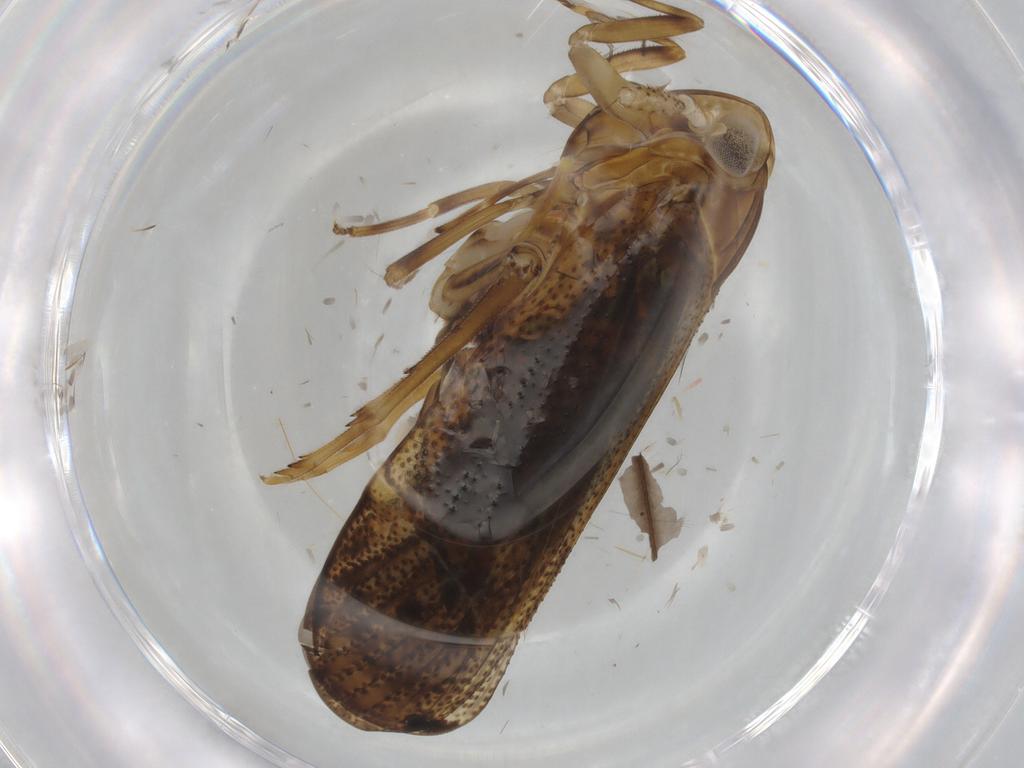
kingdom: Animalia
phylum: Arthropoda
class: Insecta
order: Hemiptera
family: Delphacidae
